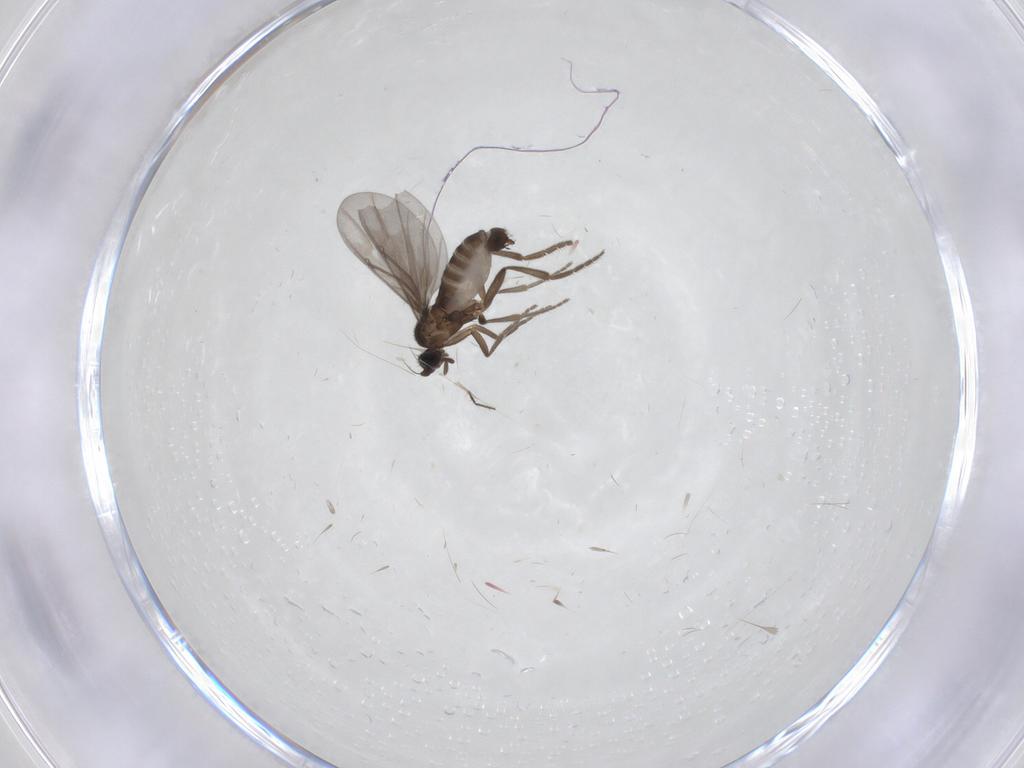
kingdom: Animalia
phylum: Arthropoda
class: Insecta
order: Diptera
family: Phoridae
